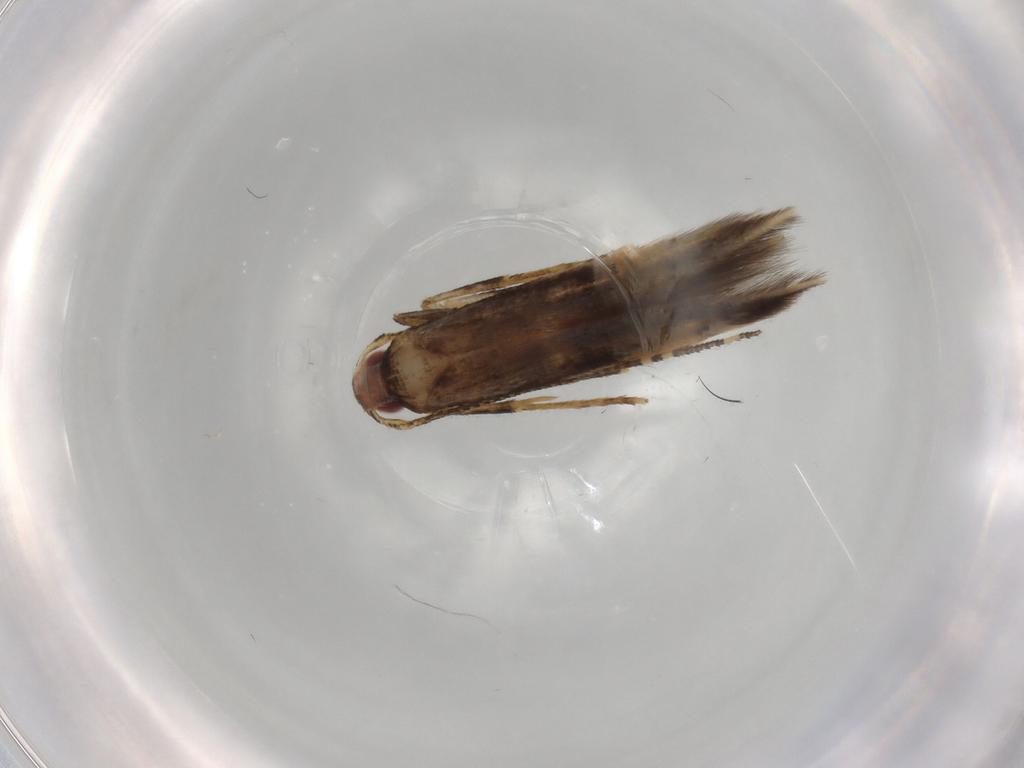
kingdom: Animalia
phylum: Arthropoda
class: Insecta
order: Lepidoptera
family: Cosmopterigidae
